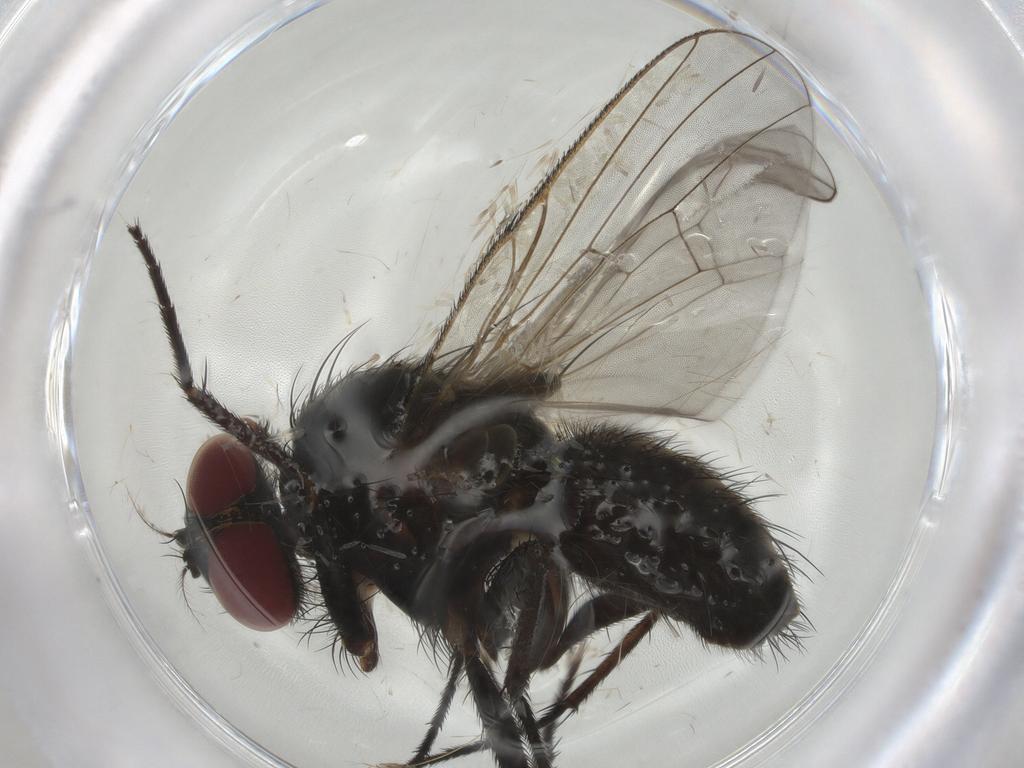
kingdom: Animalia
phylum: Arthropoda
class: Insecta
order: Diptera
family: Muscidae
